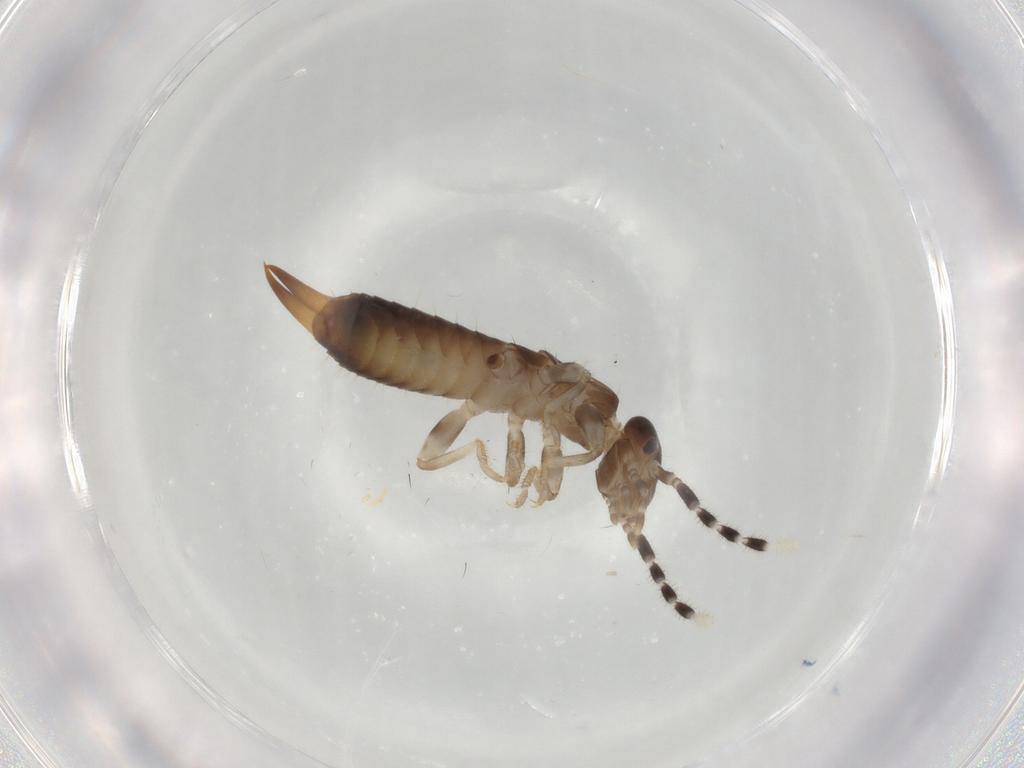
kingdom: Animalia
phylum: Arthropoda
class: Insecta
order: Dermaptera
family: Anisolabididae
